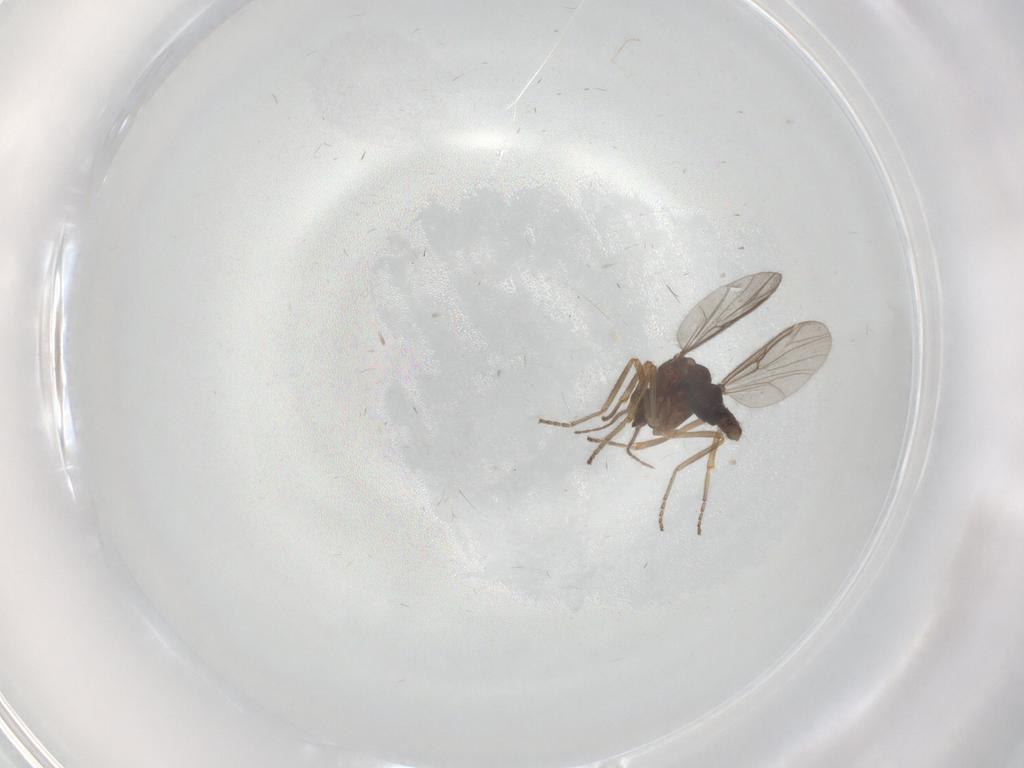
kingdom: Animalia
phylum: Arthropoda
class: Insecta
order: Diptera
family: Ceratopogonidae
